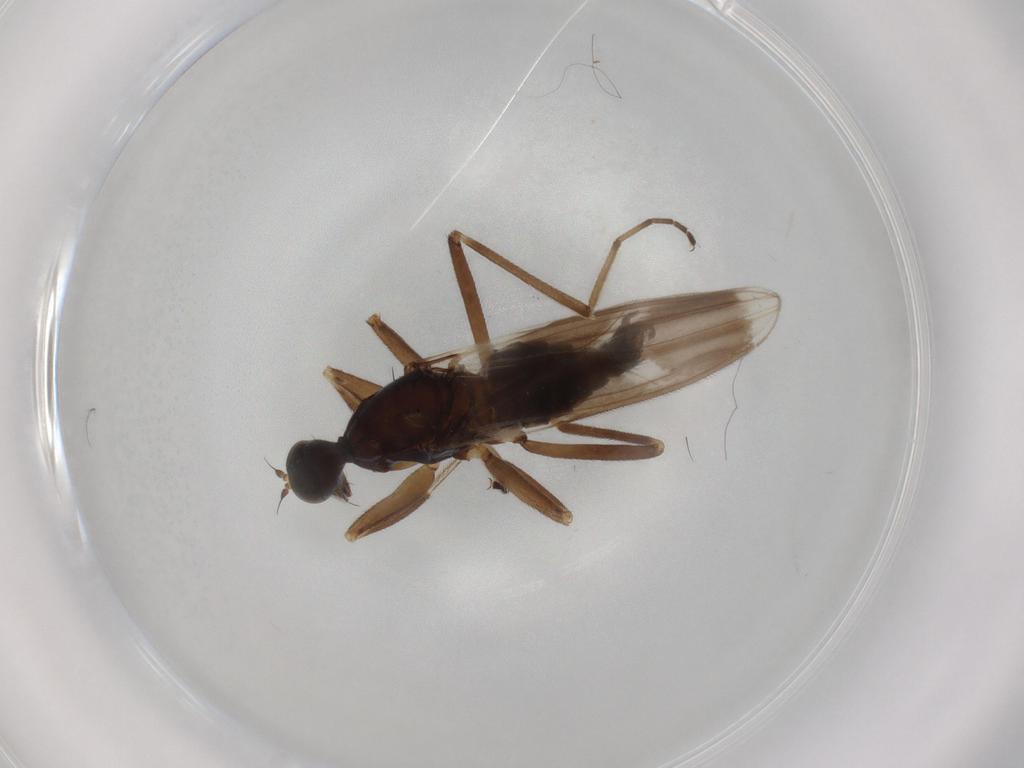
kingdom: Animalia
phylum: Arthropoda
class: Insecta
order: Diptera
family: Hybotidae
